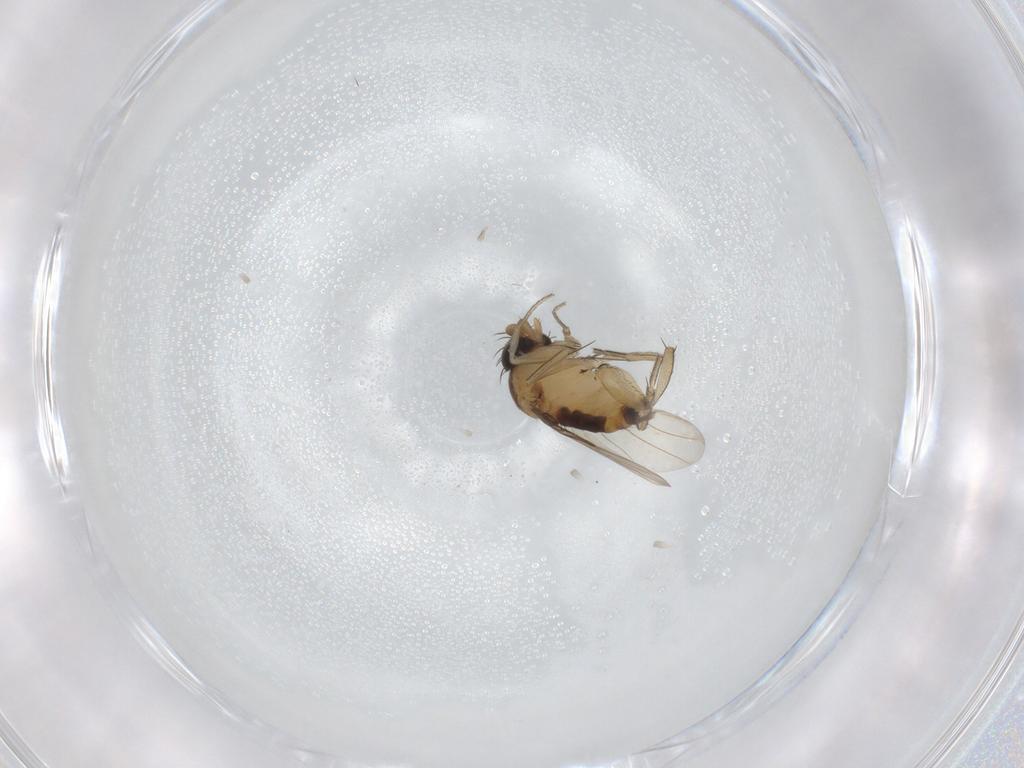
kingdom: Animalia
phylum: Arthropoda
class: Insecta
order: Diptera
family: Phoridae
